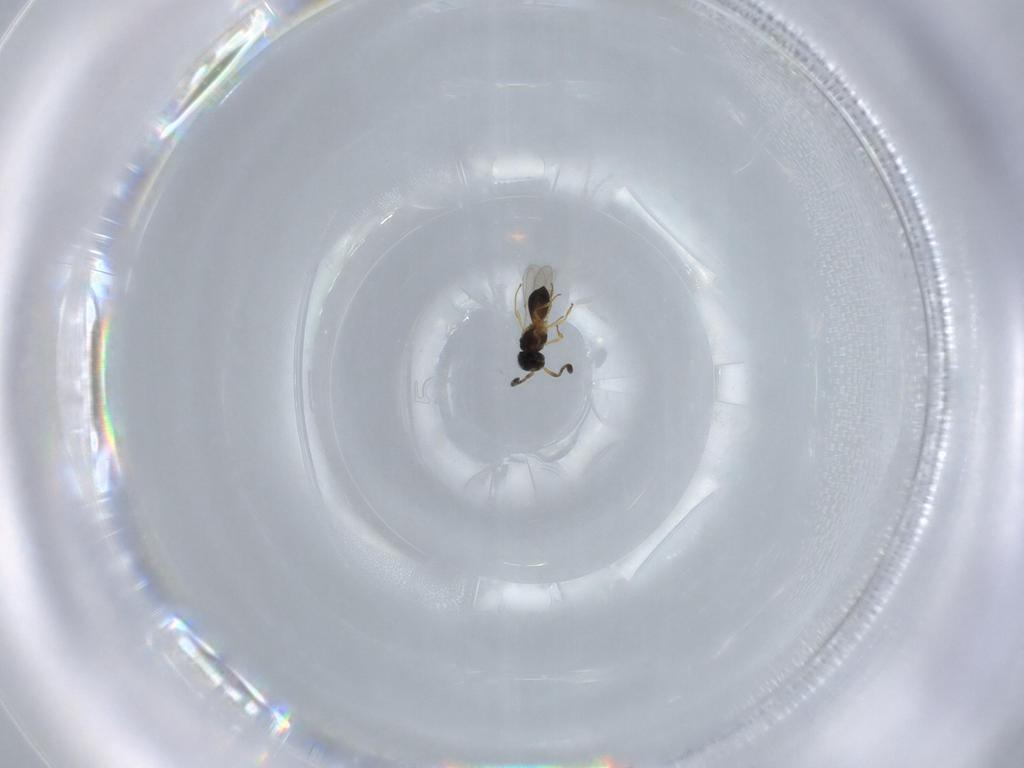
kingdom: Animalia
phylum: Arthropoda
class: Insecta
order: Hymenoptera
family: Scelionidae
